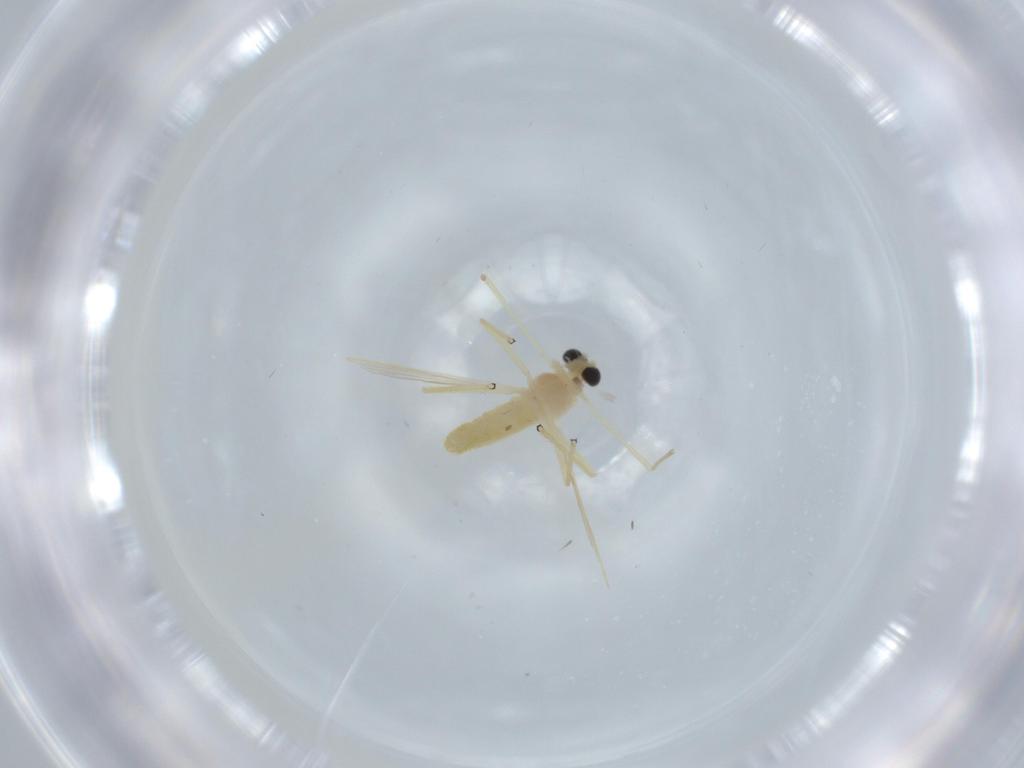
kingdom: Animalia
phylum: Arthropoda
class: Insecta
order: Diptera
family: Chironomidae
